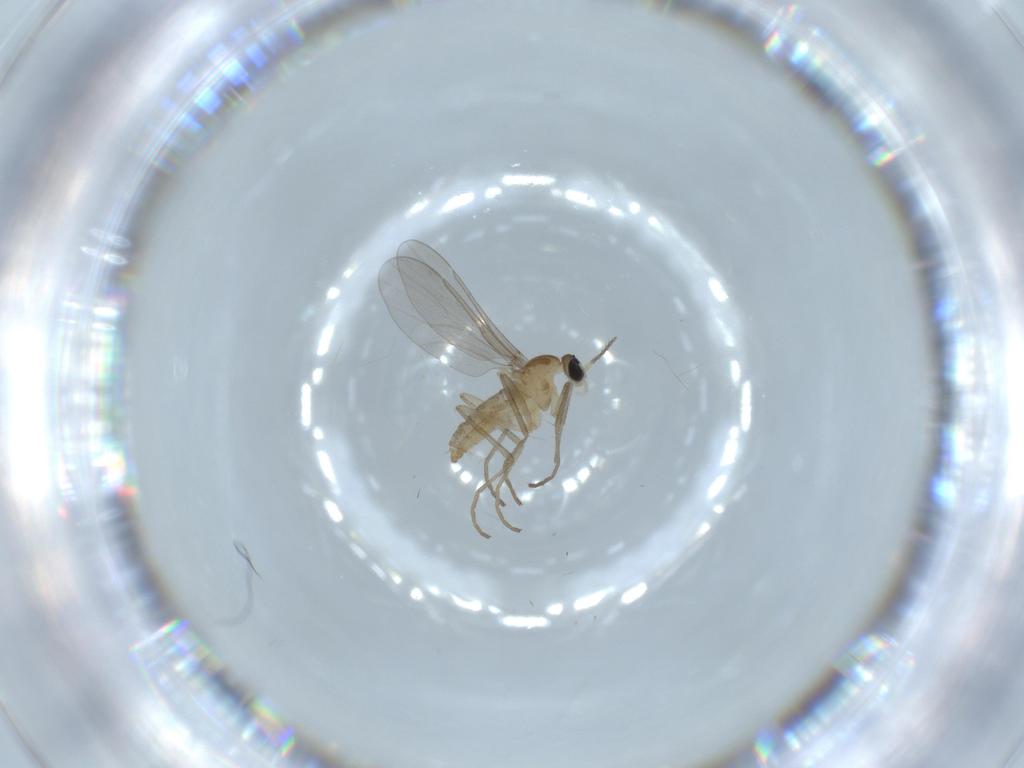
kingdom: Animalia
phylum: Arthropoda
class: Insecta
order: Diptera
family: Cecidomyiidae
